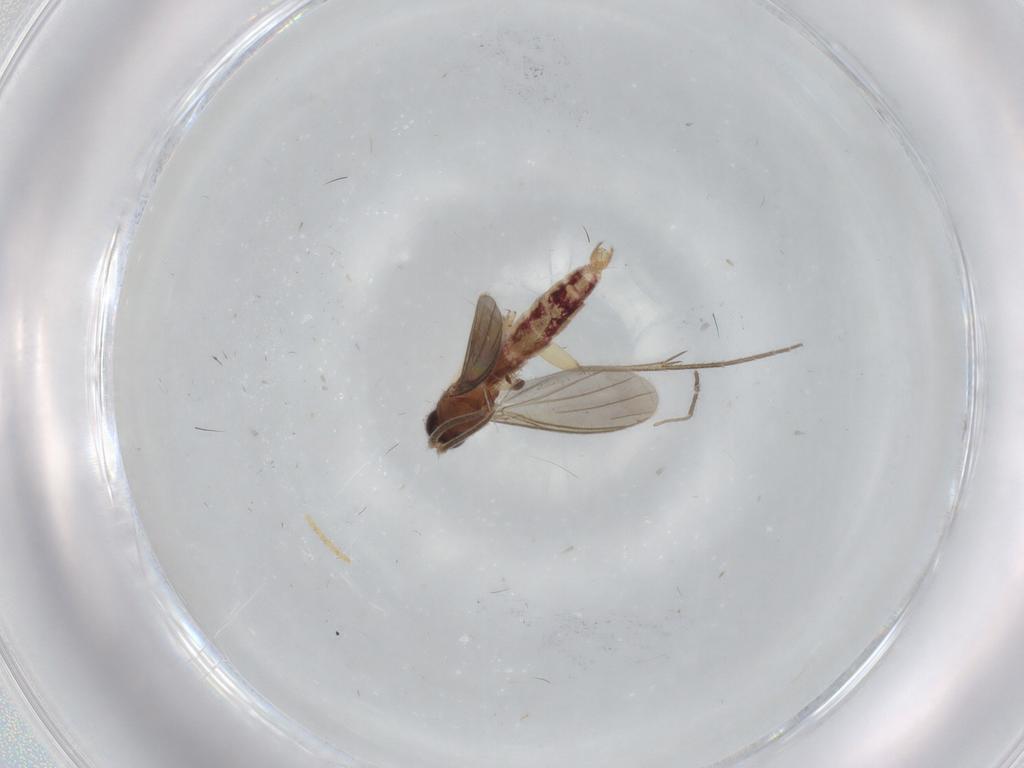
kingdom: Animalia
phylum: Arthropoda
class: Insecta
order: Diptera
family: Mycetophilidae
